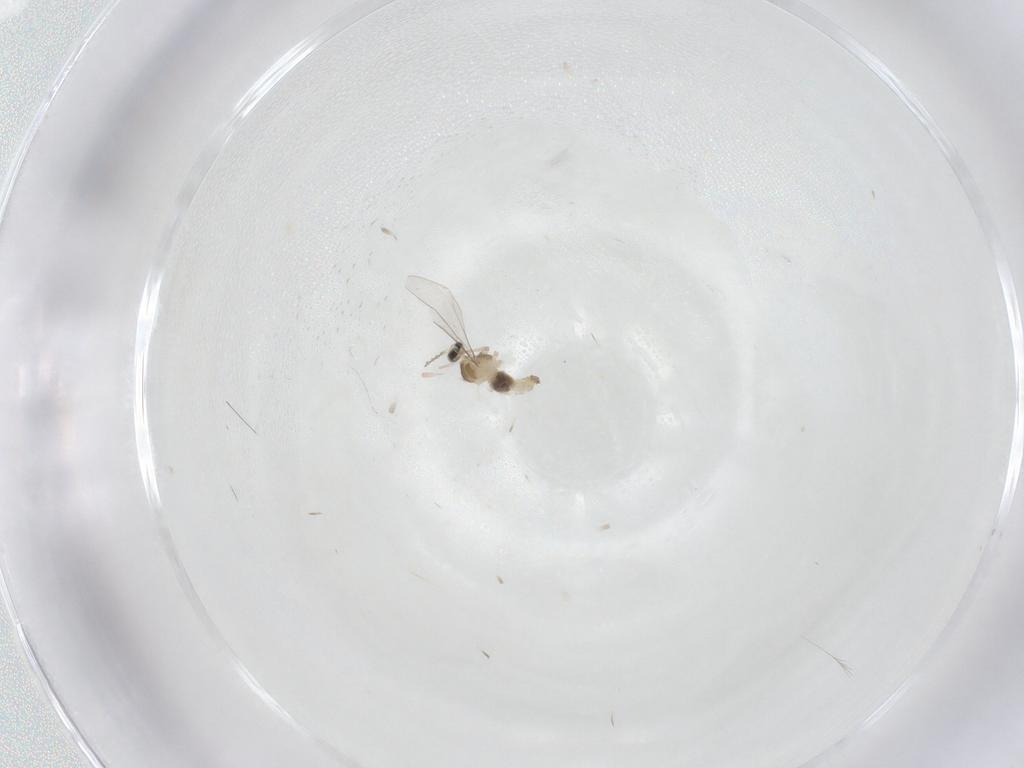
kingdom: Animalia
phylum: Arthropoda
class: Insecta
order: Diptera
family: Cecidomyiidae
